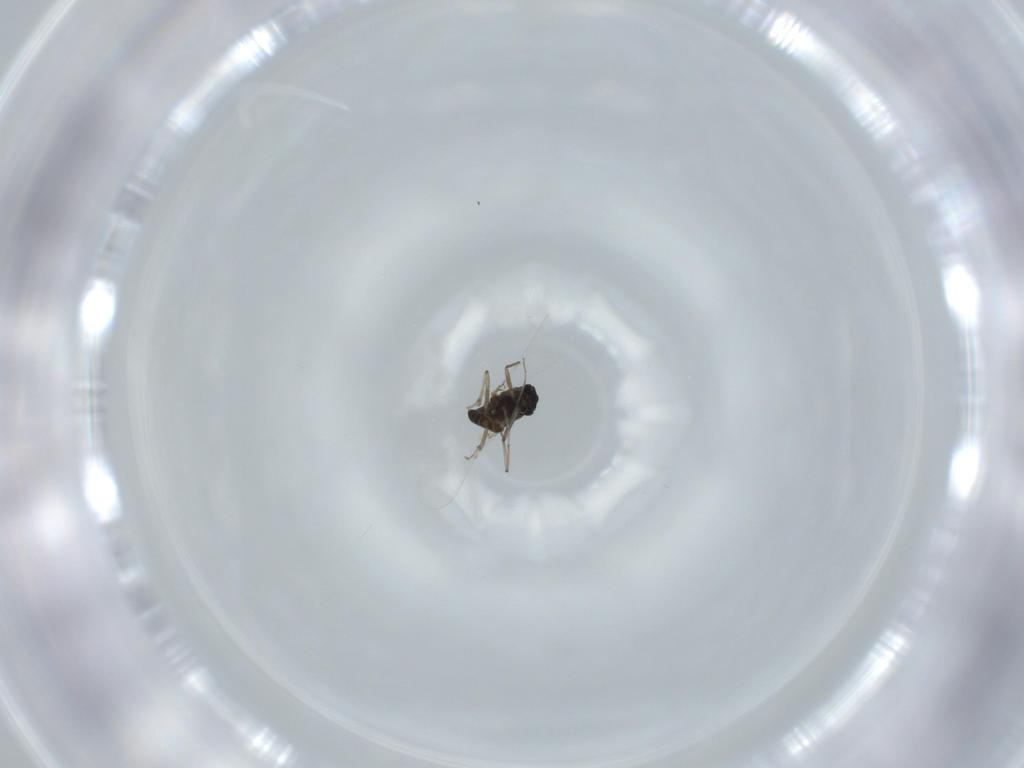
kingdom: Animalia
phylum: Arthropoda
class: Insecta
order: Diptera
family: Chironomidae
